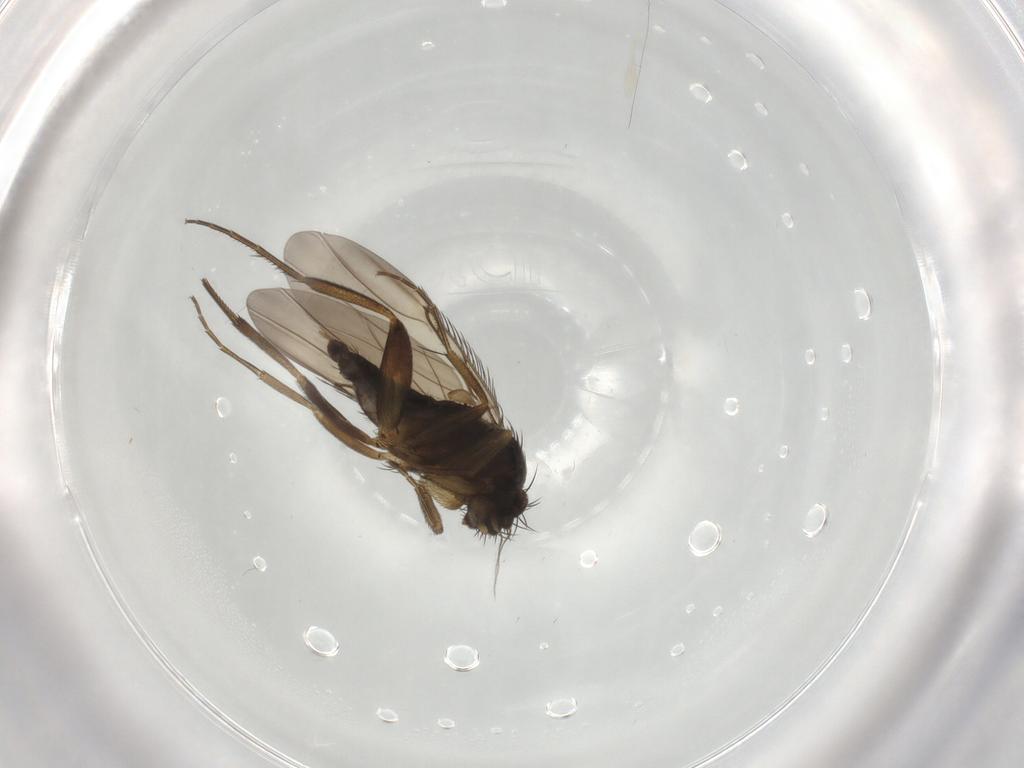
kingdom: Animalia
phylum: Arthropoda
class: Insecta
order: Diptera
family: Phoridae
